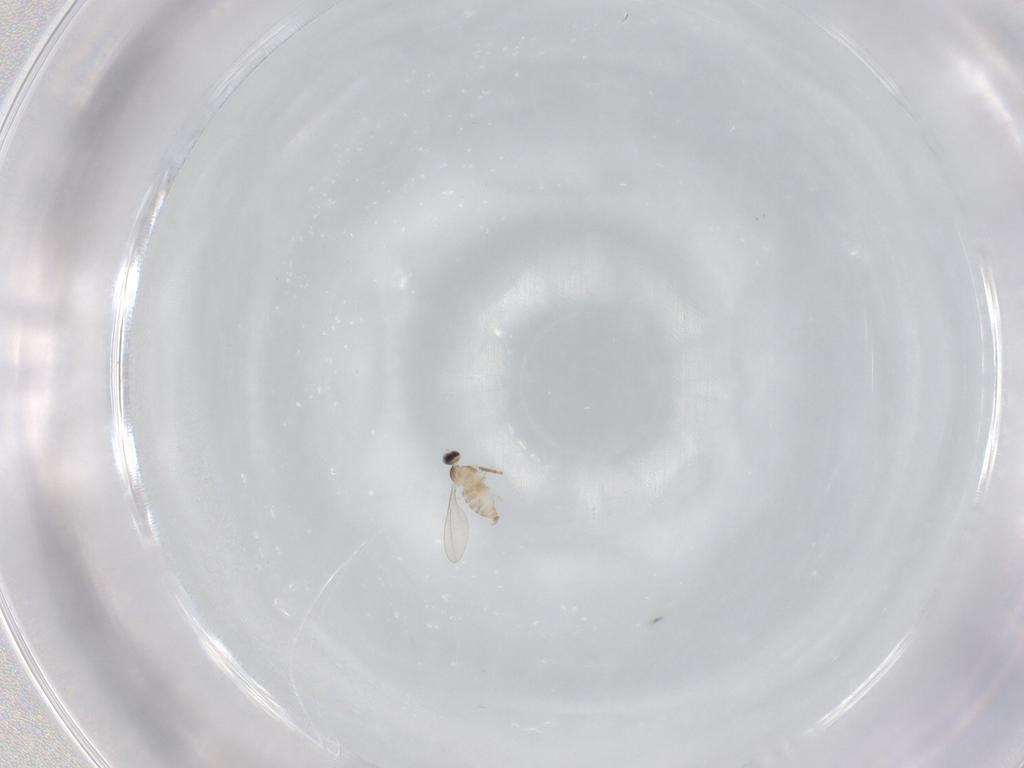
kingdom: Animalia
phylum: Arthropoda
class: Insecta
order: Diptera
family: Cecidomyiidae
